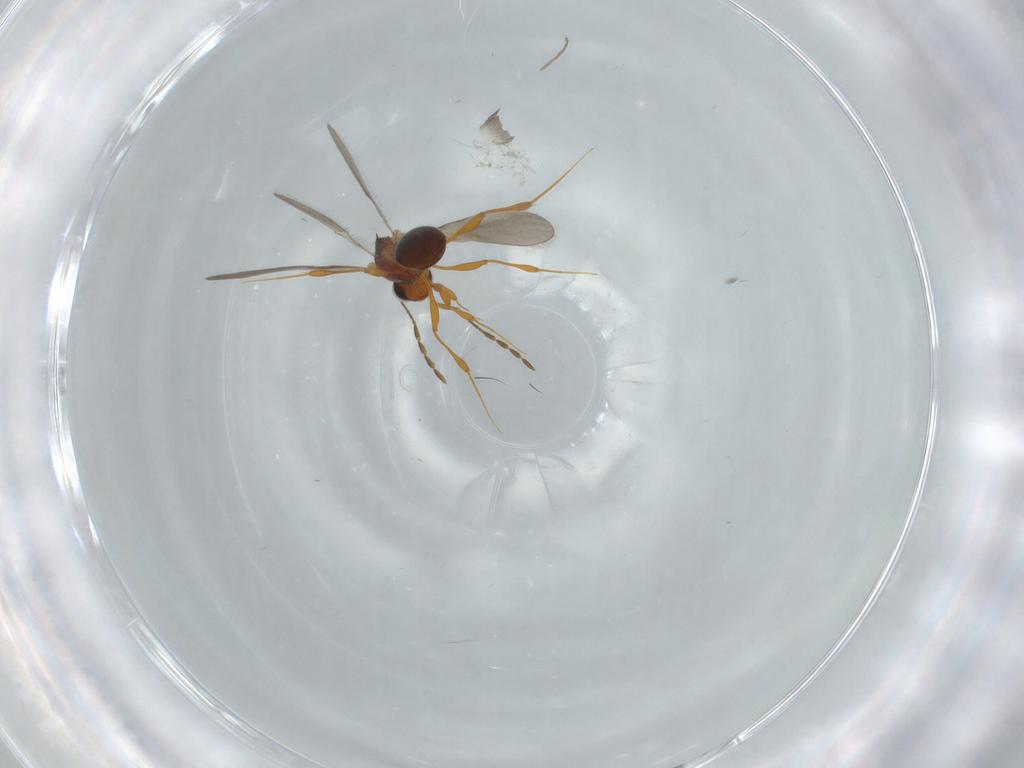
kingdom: Animalia
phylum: Arthropoda
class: Insecta
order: Hymenoptera
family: Platygastridae
